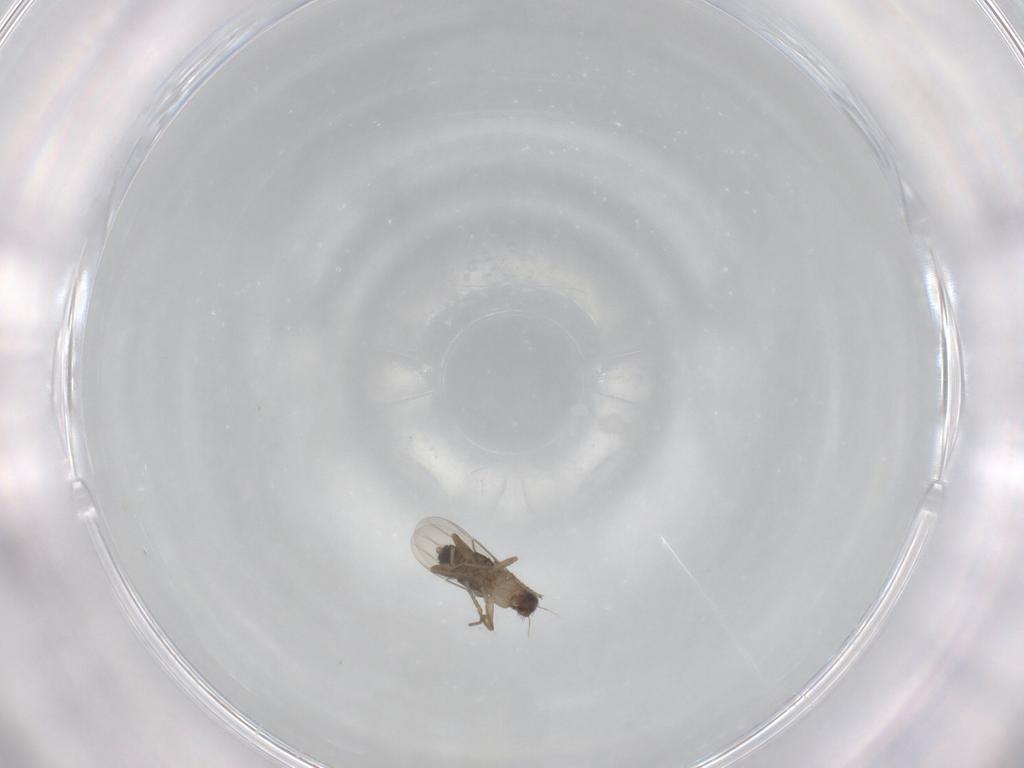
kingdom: Animalia
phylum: Arthropoda
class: Insecta
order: Diptera
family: Phoridae
